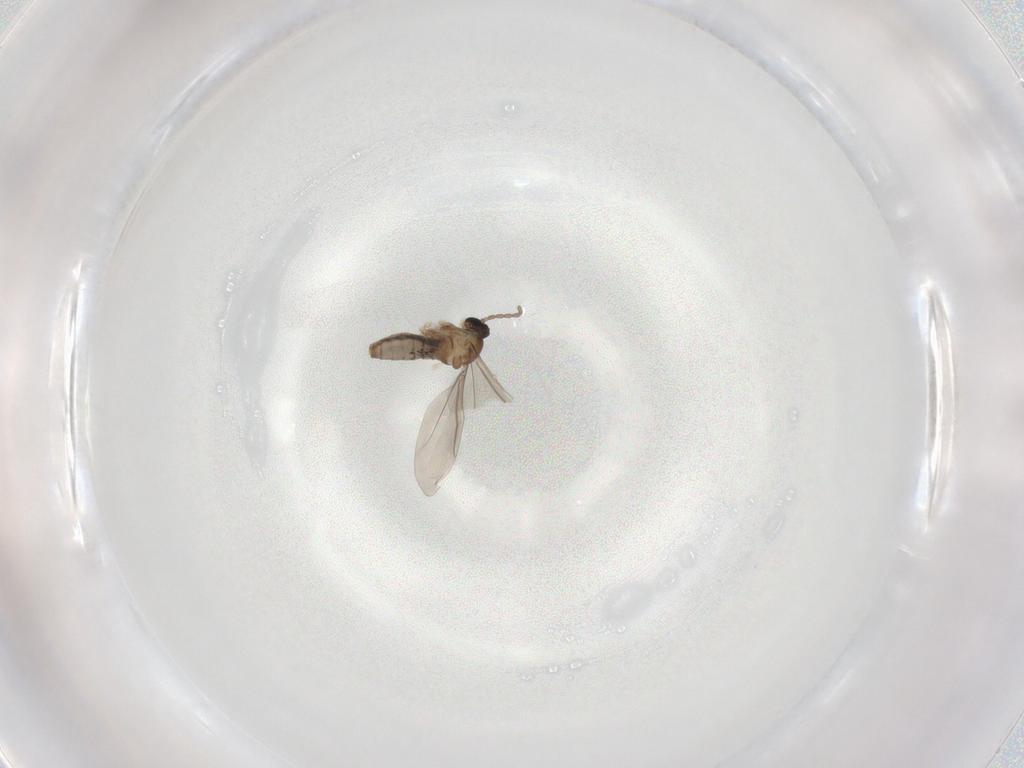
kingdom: Animalia
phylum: Arthropoda
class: Insecta
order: Diptera
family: Cecidomyiidae
